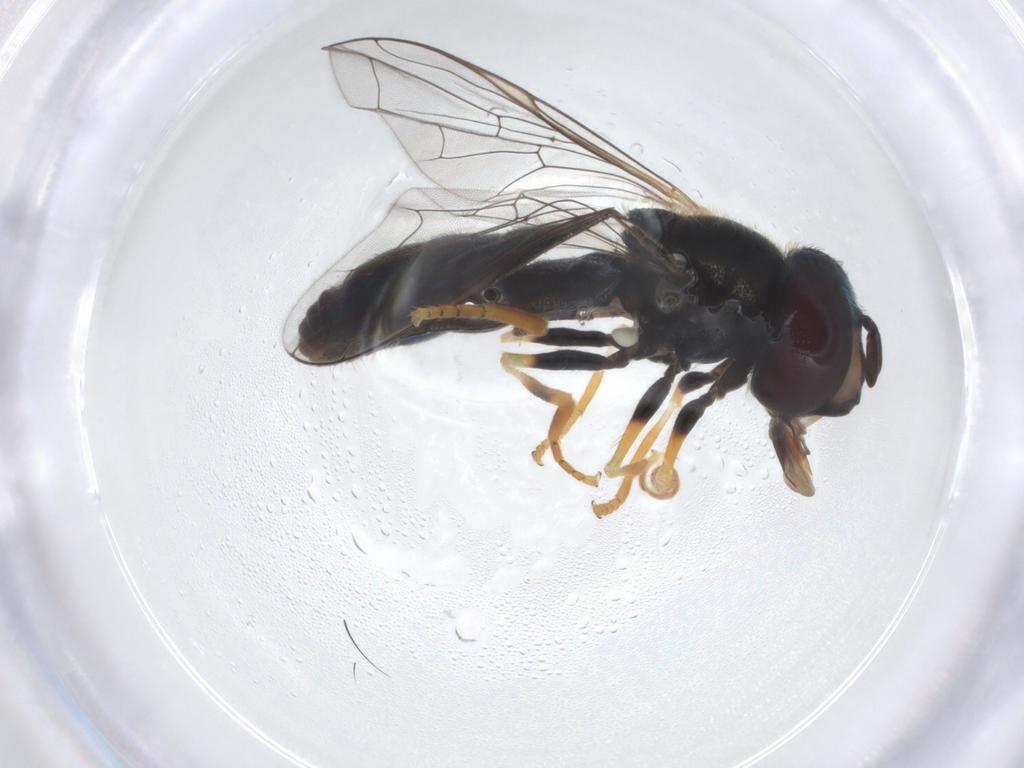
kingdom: Animalia
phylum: Arthropoda
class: Insecta
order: Diptera
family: Syrphidae
